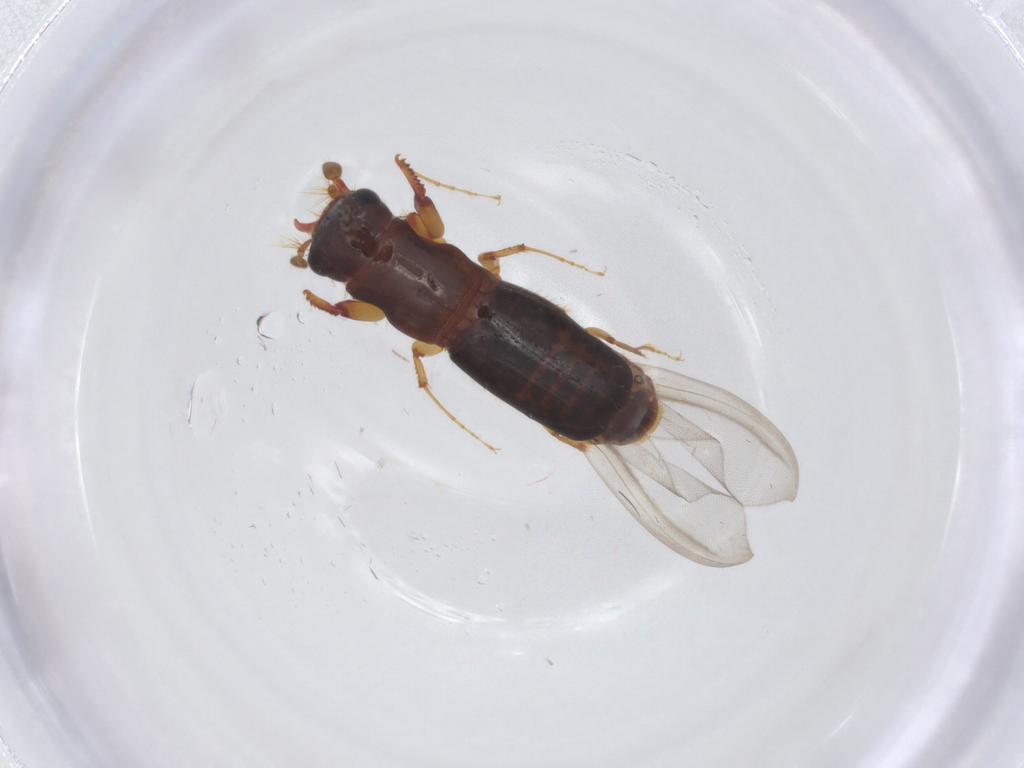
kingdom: Animalia
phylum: Arthropoda
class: Insecta
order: Coleoptera
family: Curculionidae
